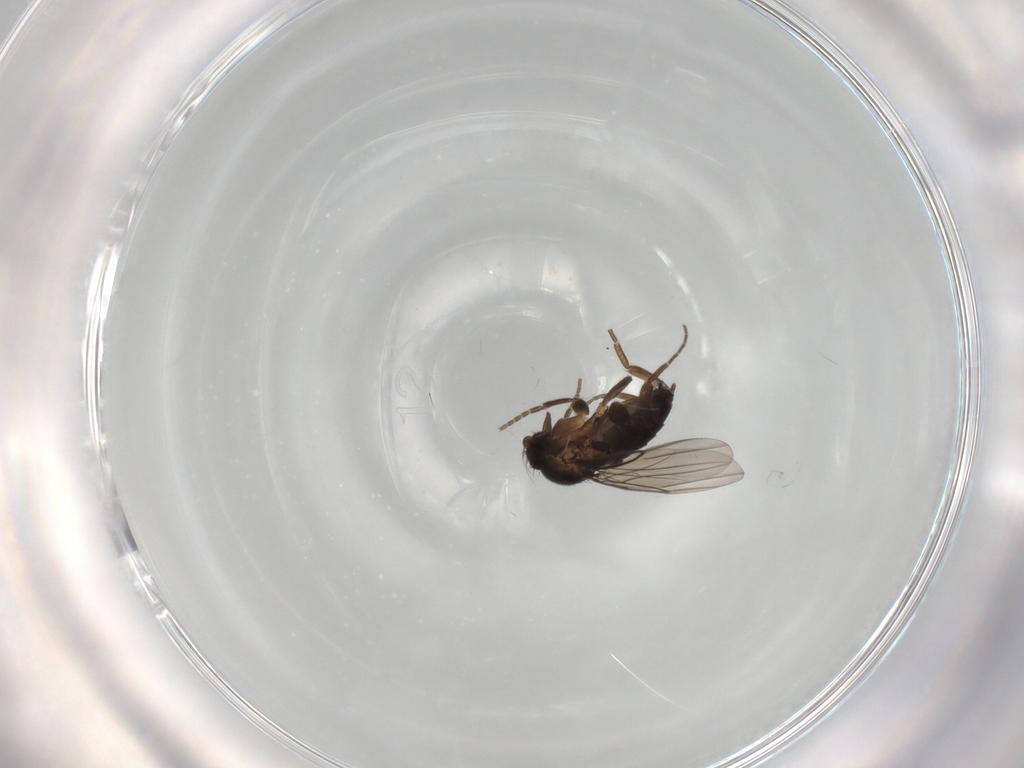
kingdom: Animalia
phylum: Arthropoda
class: Insecta
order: Diptera
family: Phoridae
